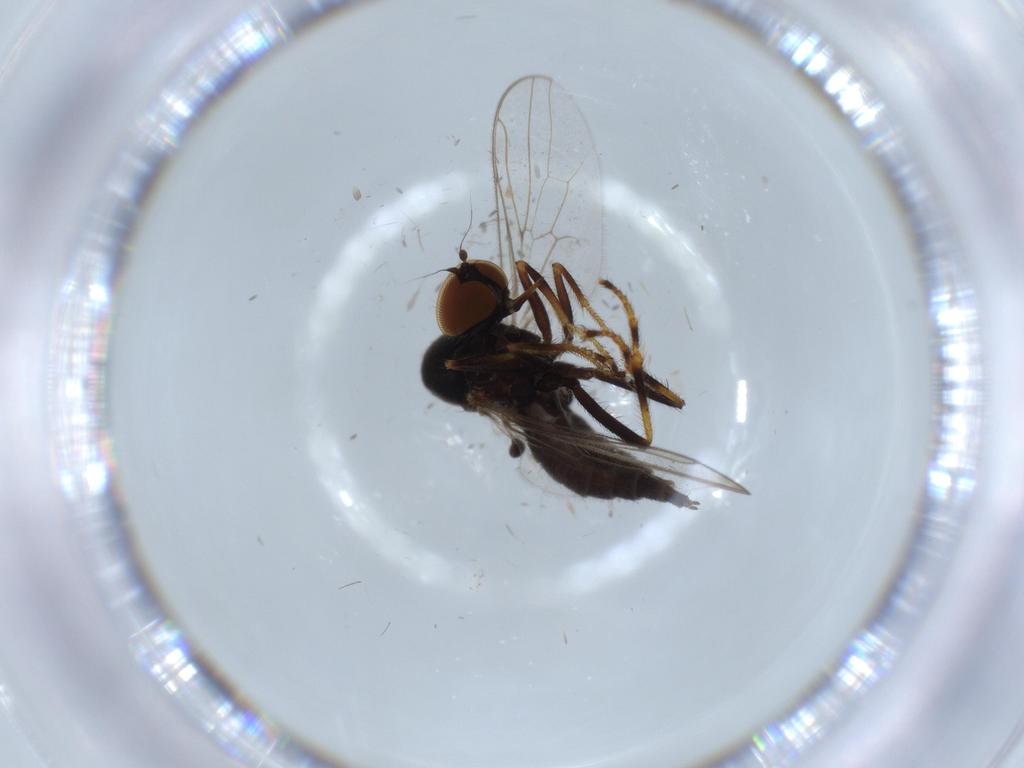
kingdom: Animalia
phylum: Arthropoda
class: Insecta
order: Diptera
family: Hybotidae
